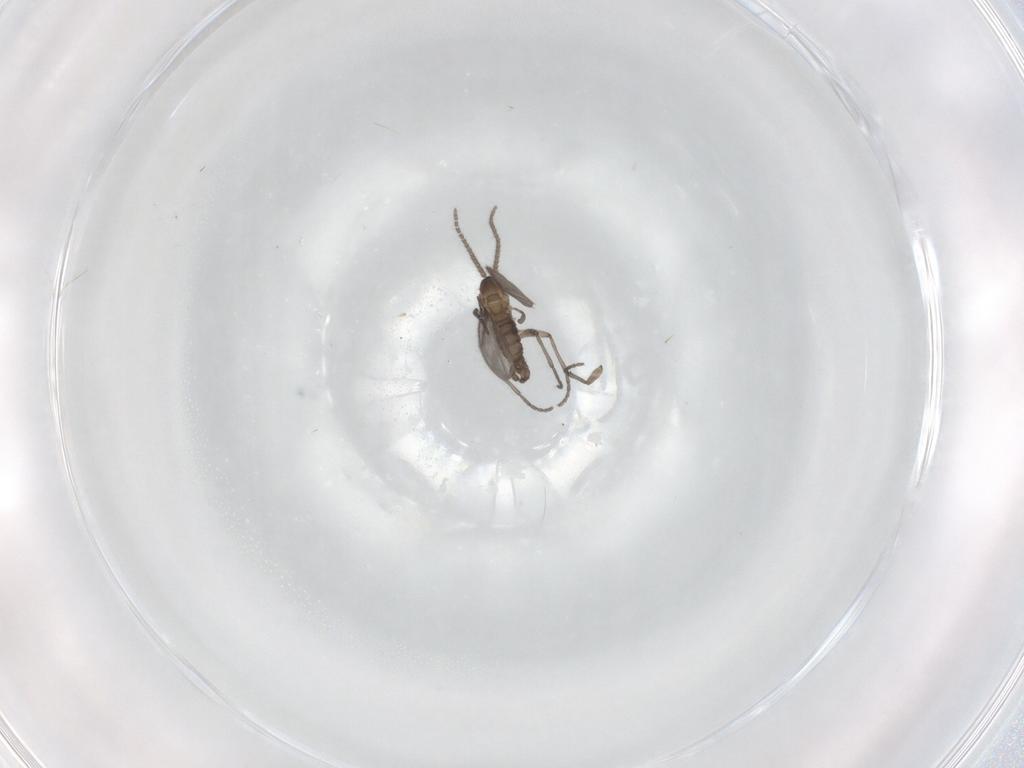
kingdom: Animalia
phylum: Arthropoda
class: Insecta
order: Diptera
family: Sciaridae
